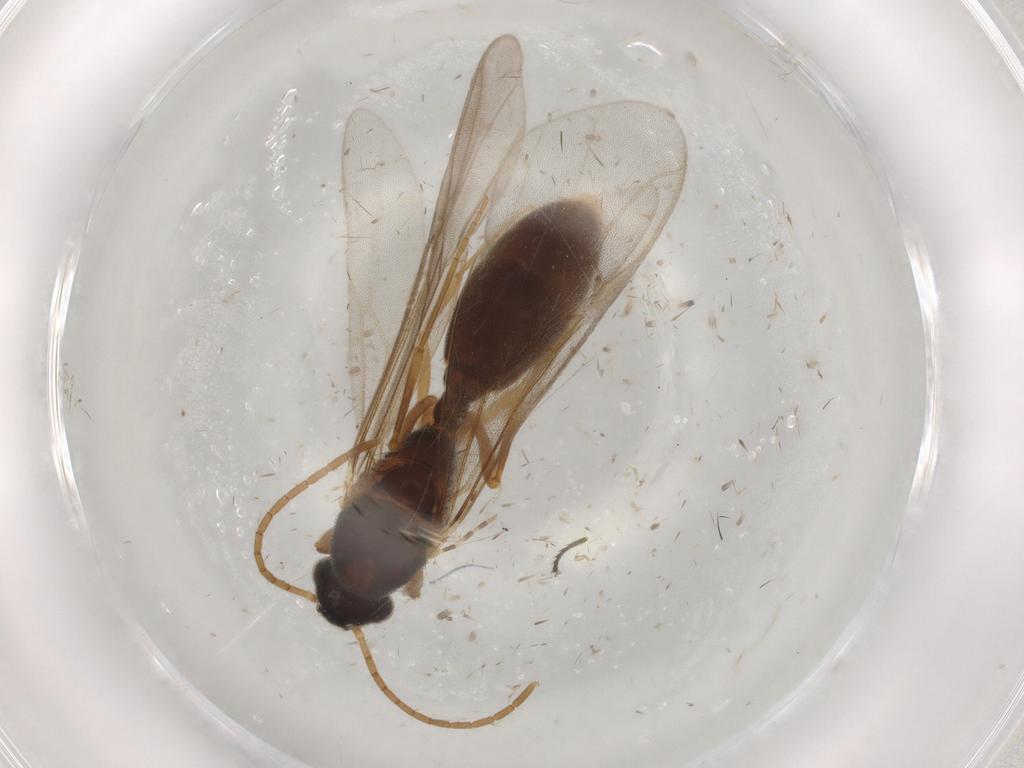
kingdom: Animalia
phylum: Arthropoda
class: Insecta
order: Hymenoptera
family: Formicidae
